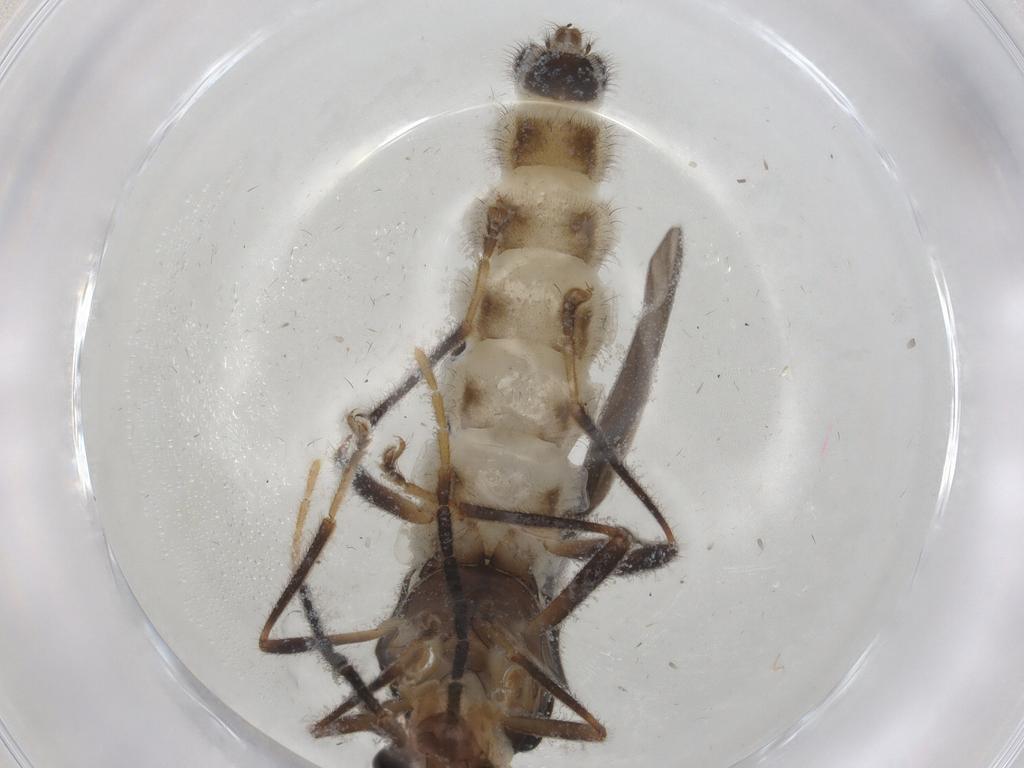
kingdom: Animalia
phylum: Arthropoda
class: Insecta
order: Coleoptera
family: Cantharidae
